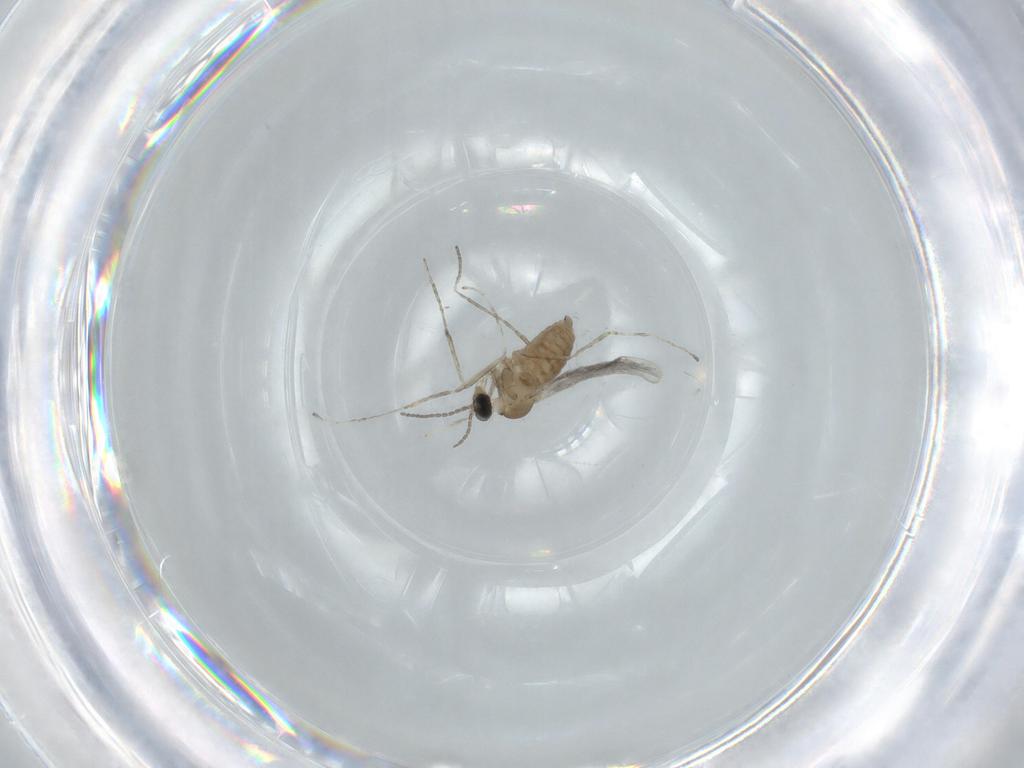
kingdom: Animalia
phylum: Arthropoda
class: Insecta
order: Diptera
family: Cecidomyiidae
